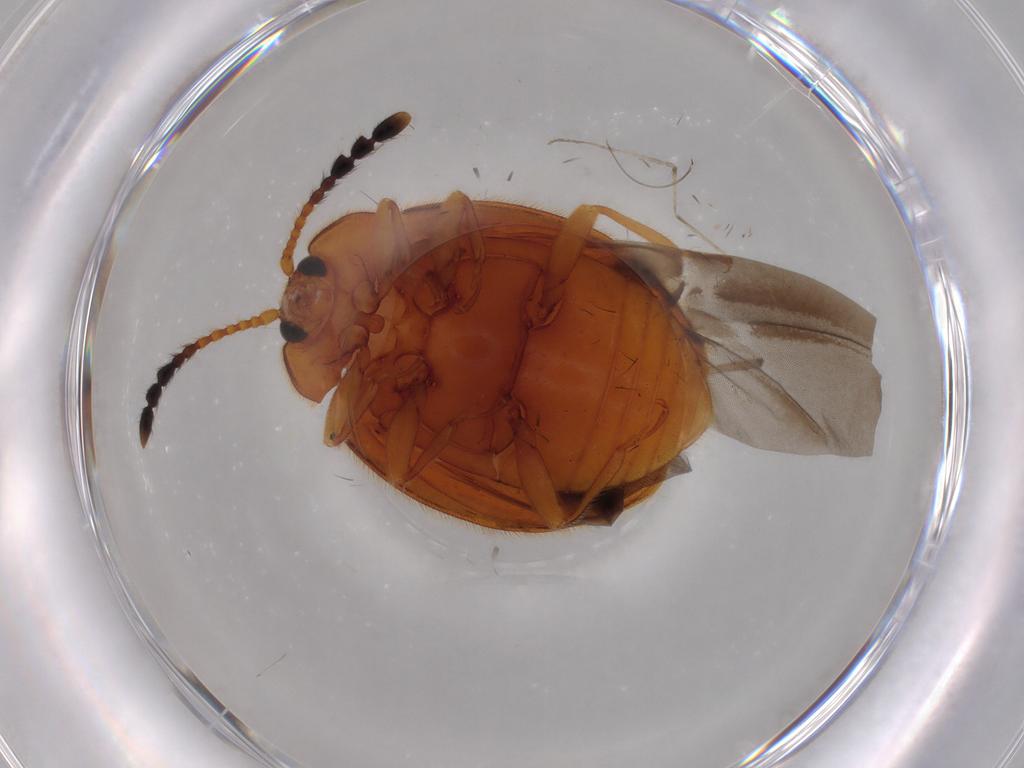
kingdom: Animalia
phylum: Arthropoda
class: Insecta
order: Coleoptera
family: Endomychidae
